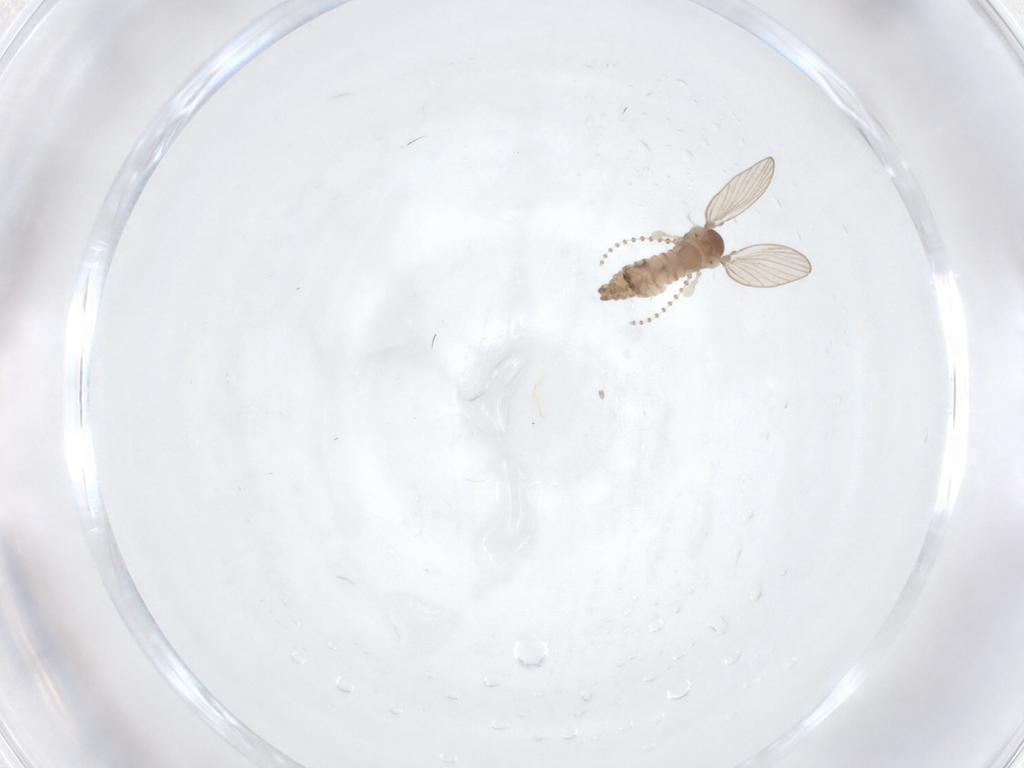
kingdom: Animalia
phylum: Arthropoda
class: Insecta
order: Diptera
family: Psychodidae
